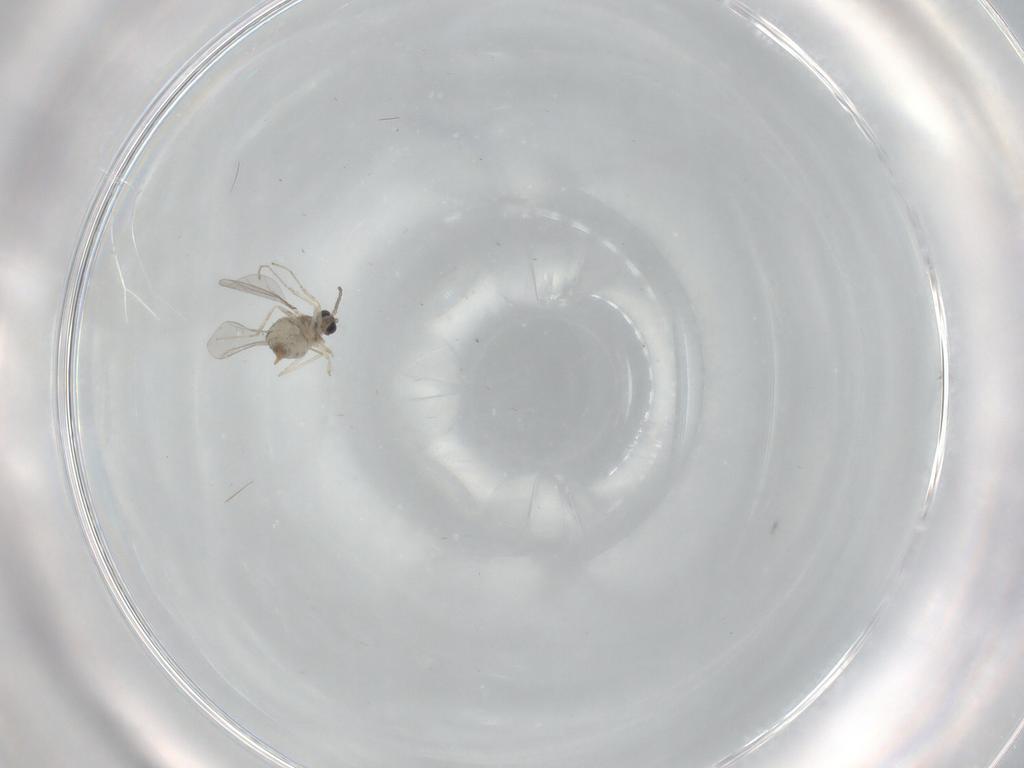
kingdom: Animalia
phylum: Arthropoda
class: Insecta
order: Diptera
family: Cecidomyiidae
